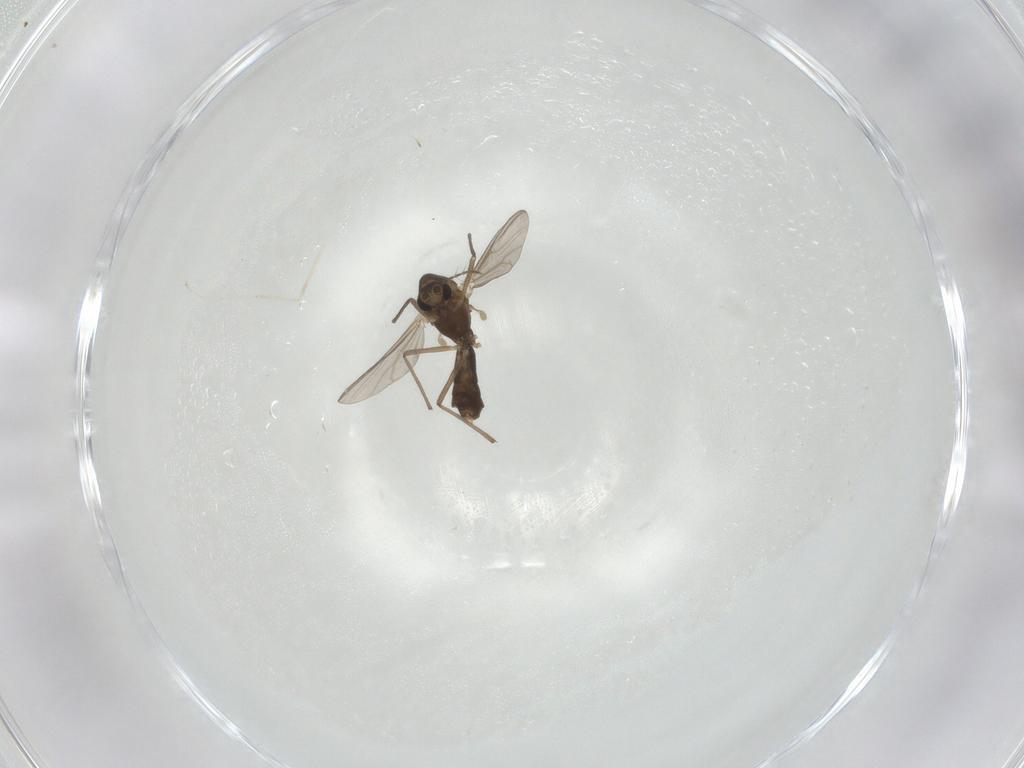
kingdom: Animalia
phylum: Arthropoda
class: Insecta
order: Diptera
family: Chironomidae
